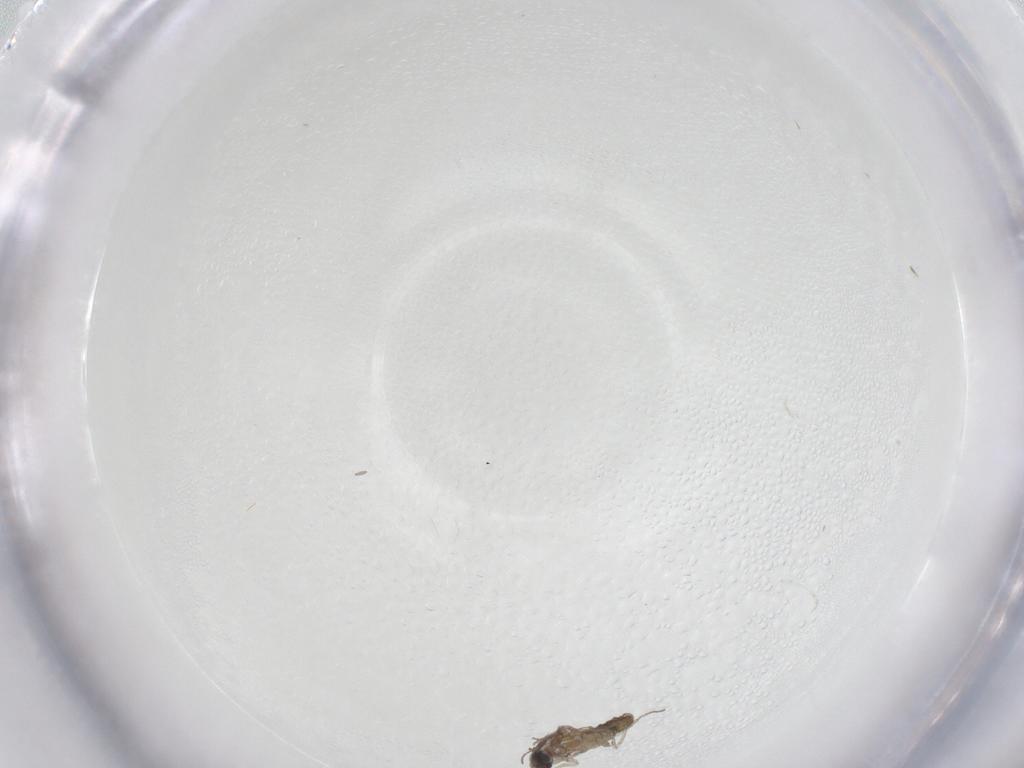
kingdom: Animalia
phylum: Arthropoda
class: Insecta
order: Diptera
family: Cecidomyiidae
